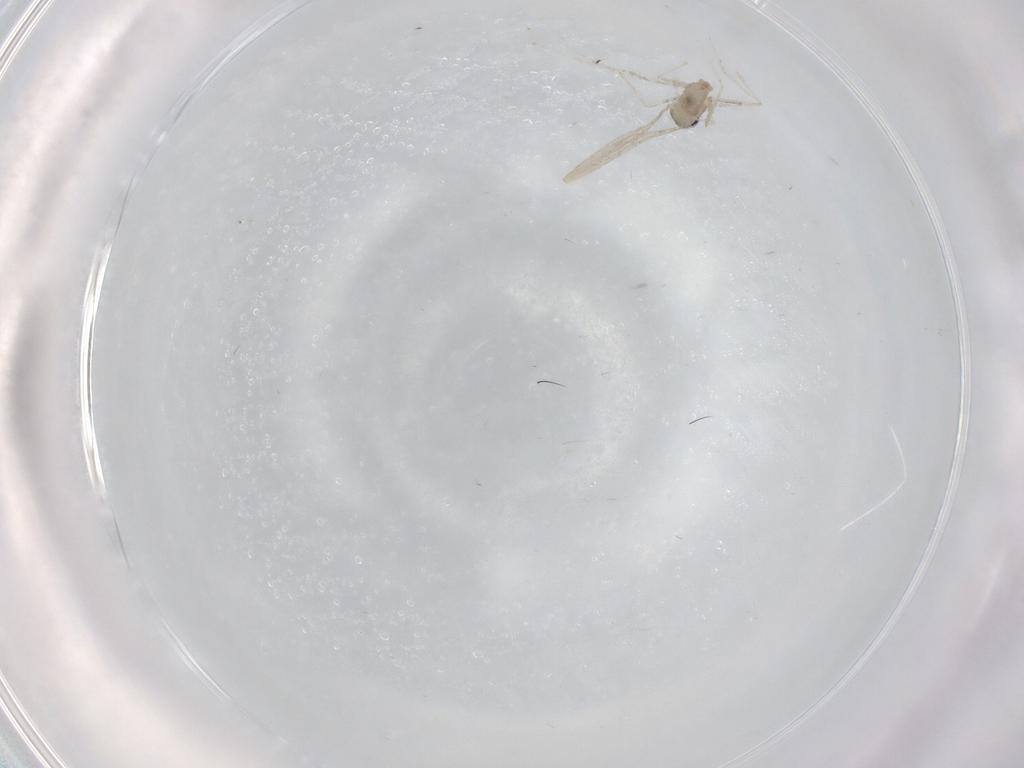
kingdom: Animalia
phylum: Arthropoda
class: Insecta
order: Diptera
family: Cecidomyiidae
